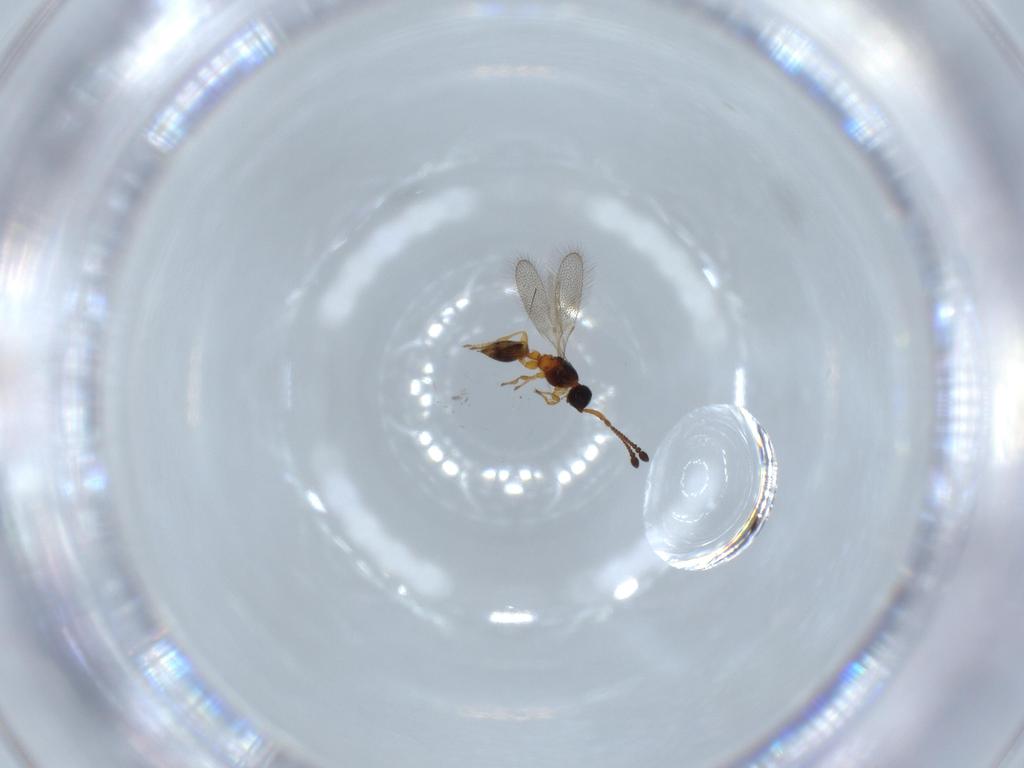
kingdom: Animalia
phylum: Arthropoda
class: Insecta
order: Hymenoptera
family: Diapriidae
